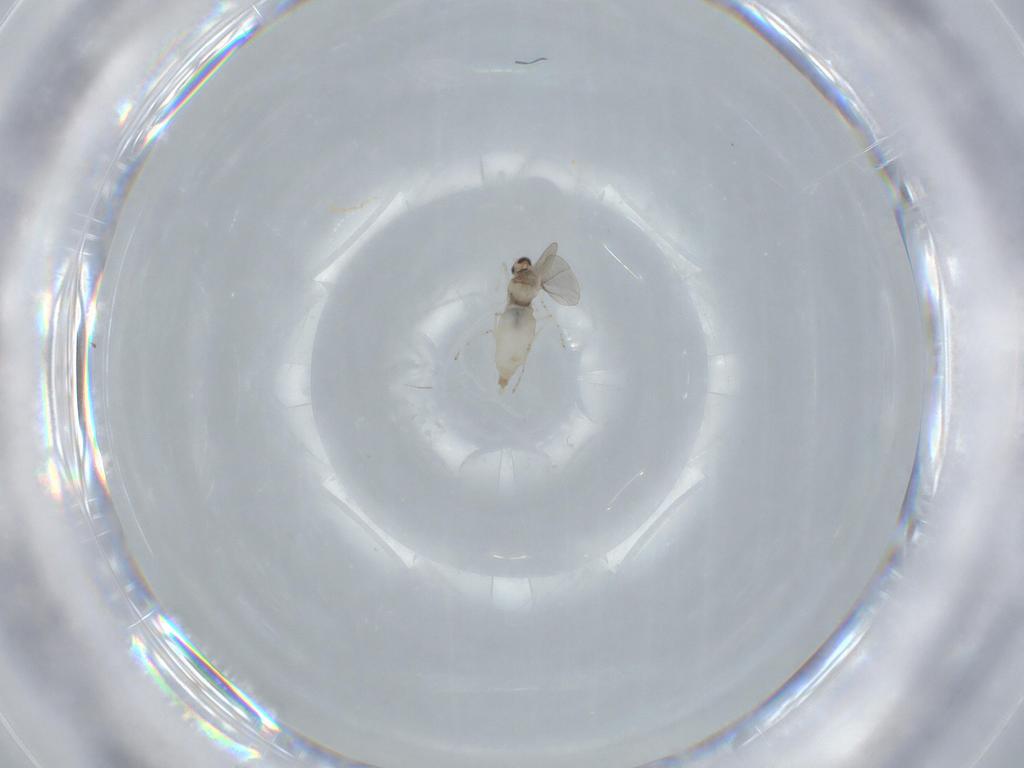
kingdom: Animalia
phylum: Arthropoda
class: Insecta
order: Diptera
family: Cecidomyiidae
